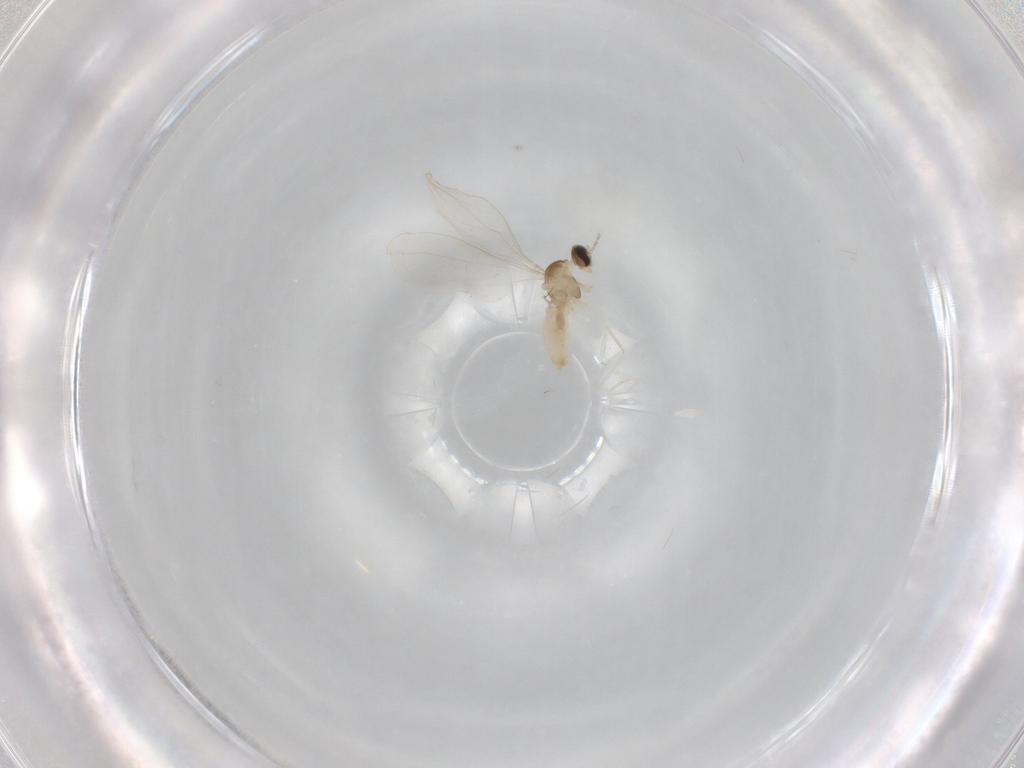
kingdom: Animalia
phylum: Arthropoda
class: Insecta
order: Diptera
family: Cecidomyiidae
